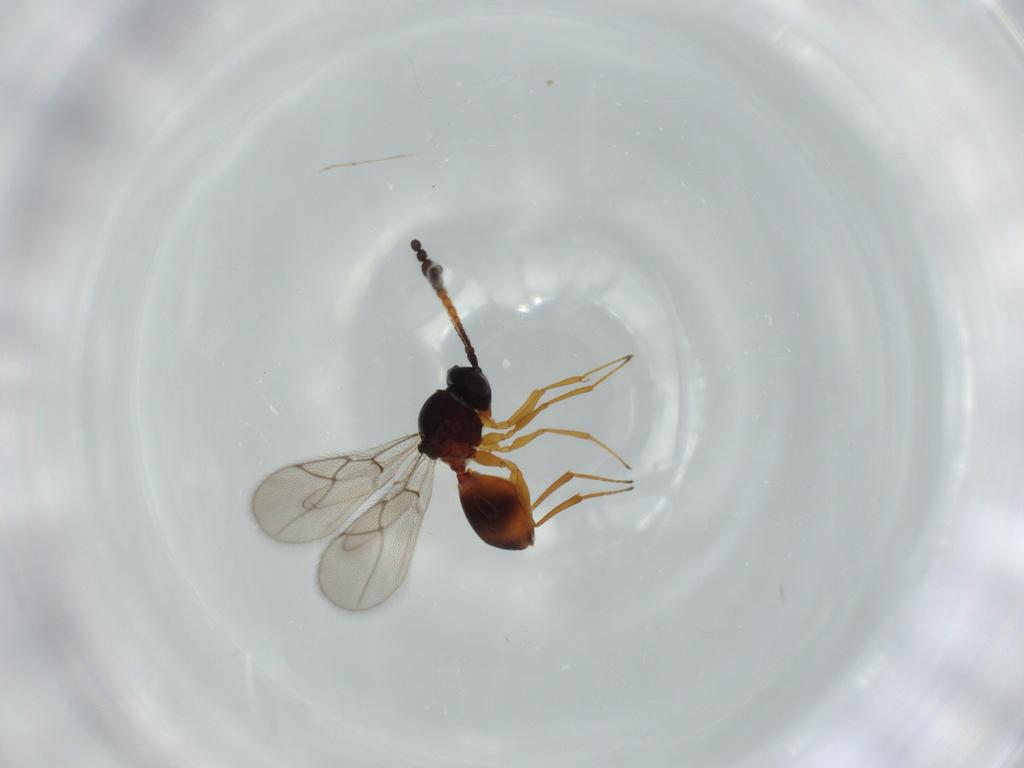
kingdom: Animalia
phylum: Arthropoda
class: Insecta
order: Hymenoptera
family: Figitidae
